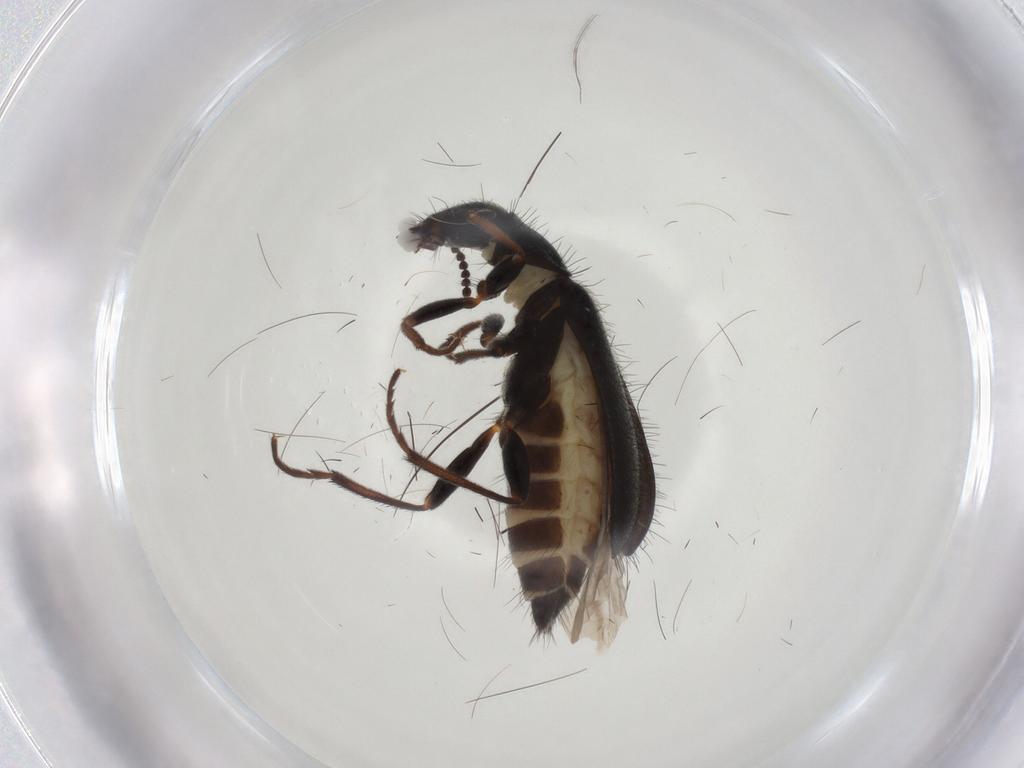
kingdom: Animalia
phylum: Arthropoda
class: Insecta
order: Coleoptera
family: Melyridae
